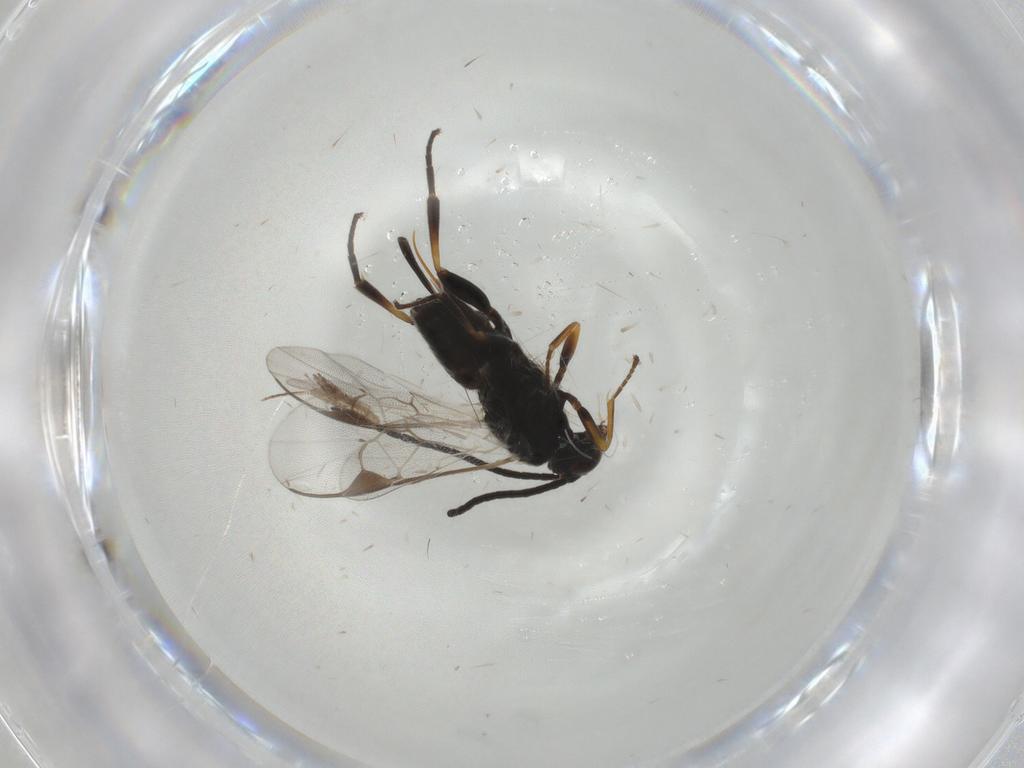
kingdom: Animalia
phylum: Arthropoda
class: Insecta
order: Hymenoptera
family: Braconidae
